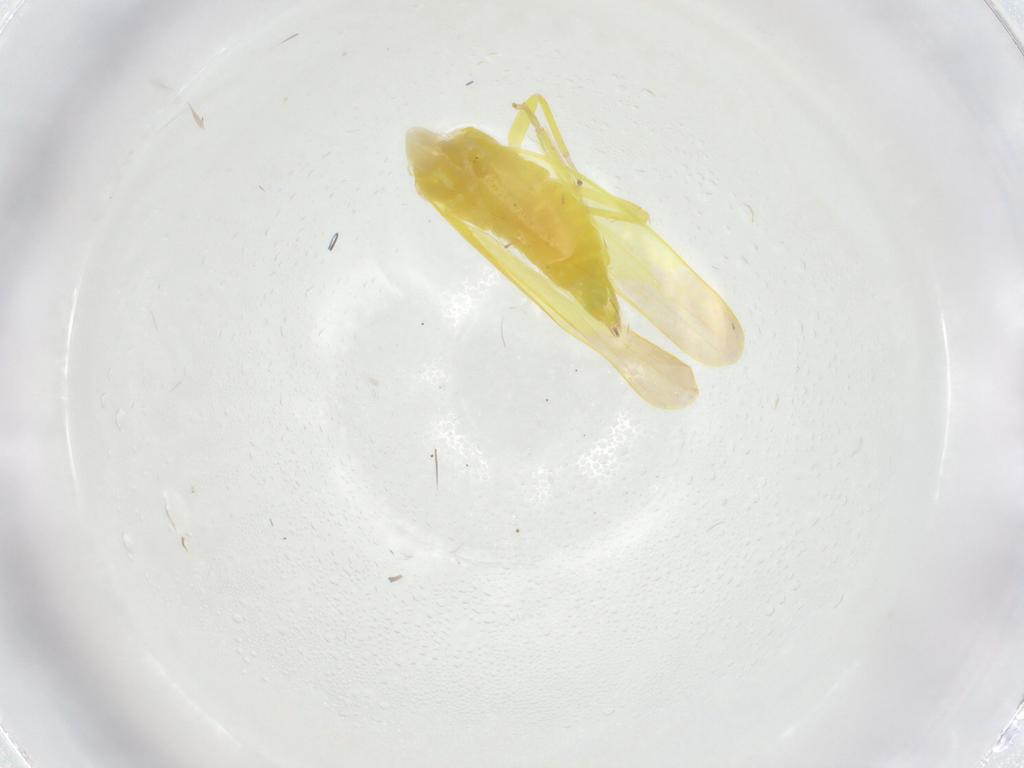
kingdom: Animalia
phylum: Arthropoda
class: Insecta
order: Hemiptera
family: Cicadellidae
